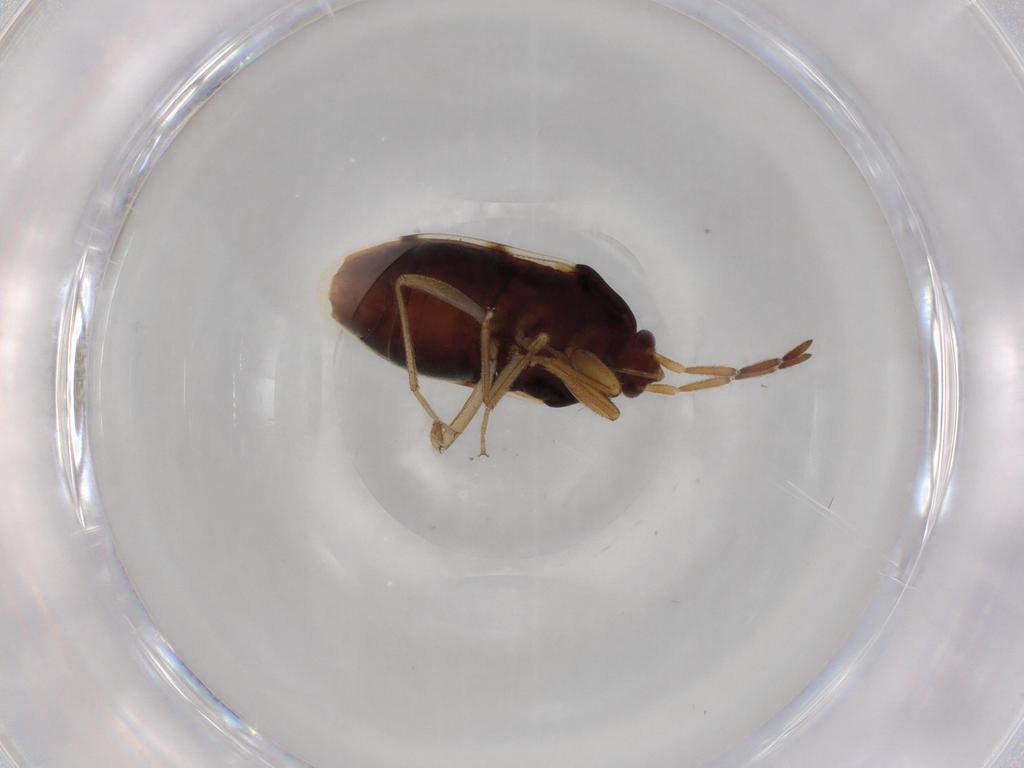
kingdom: Animalia
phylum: Arthropoda
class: Insecta
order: Hemiptera
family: Rhyparochromidae
